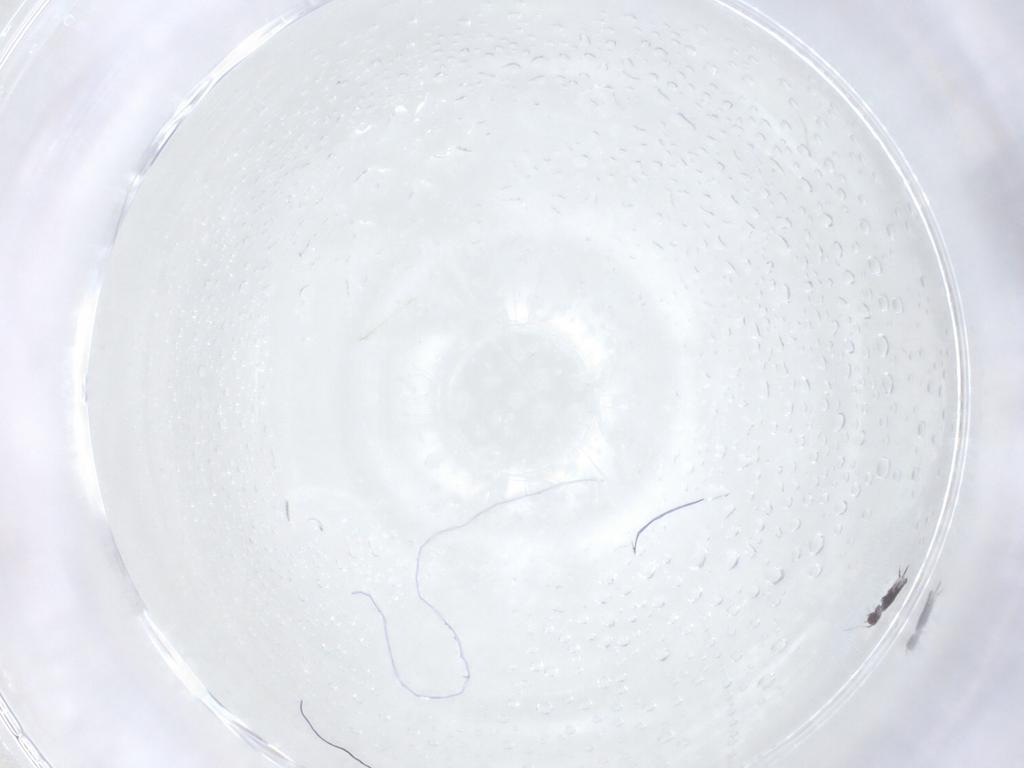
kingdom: Animalia
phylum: Arthropoda
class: Collembola
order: Symphypleona
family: Katiannidae
